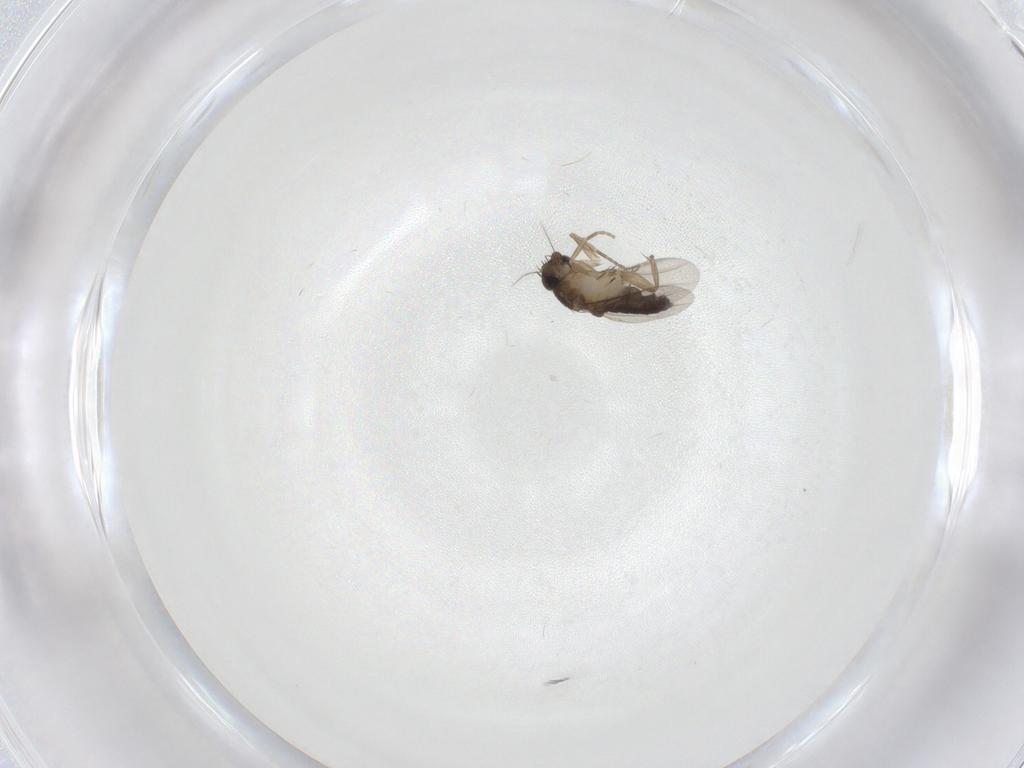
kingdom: Animalia
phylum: Arthropoda
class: Insecta
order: Diptera
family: Phoridae
